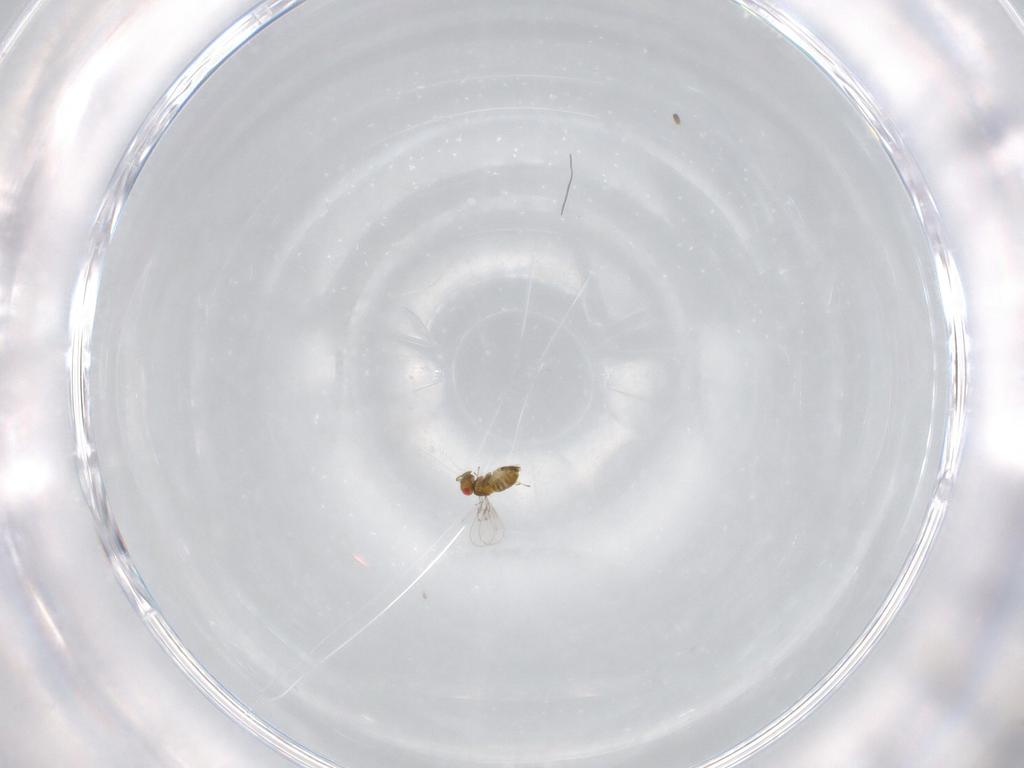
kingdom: Animalia
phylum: Arthropoda
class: Insecta
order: Hymenoptera
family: Trichogrammatidae
